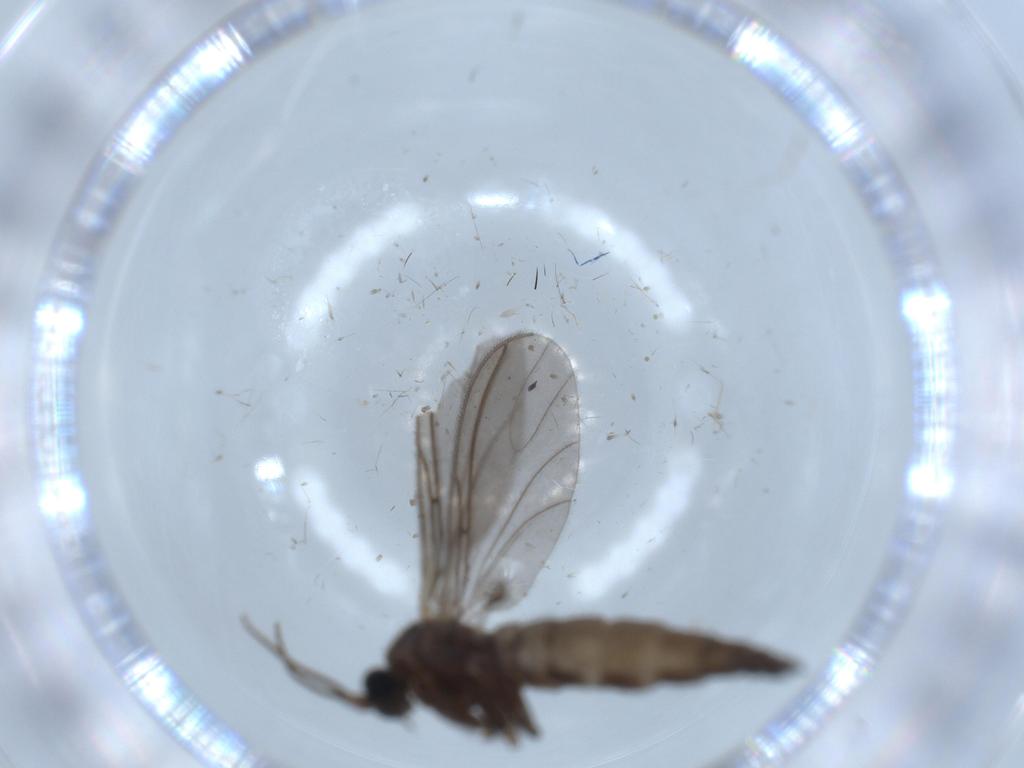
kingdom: Animalia
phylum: Arthropoda
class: Insecta
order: Diptera
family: Sciaridae
